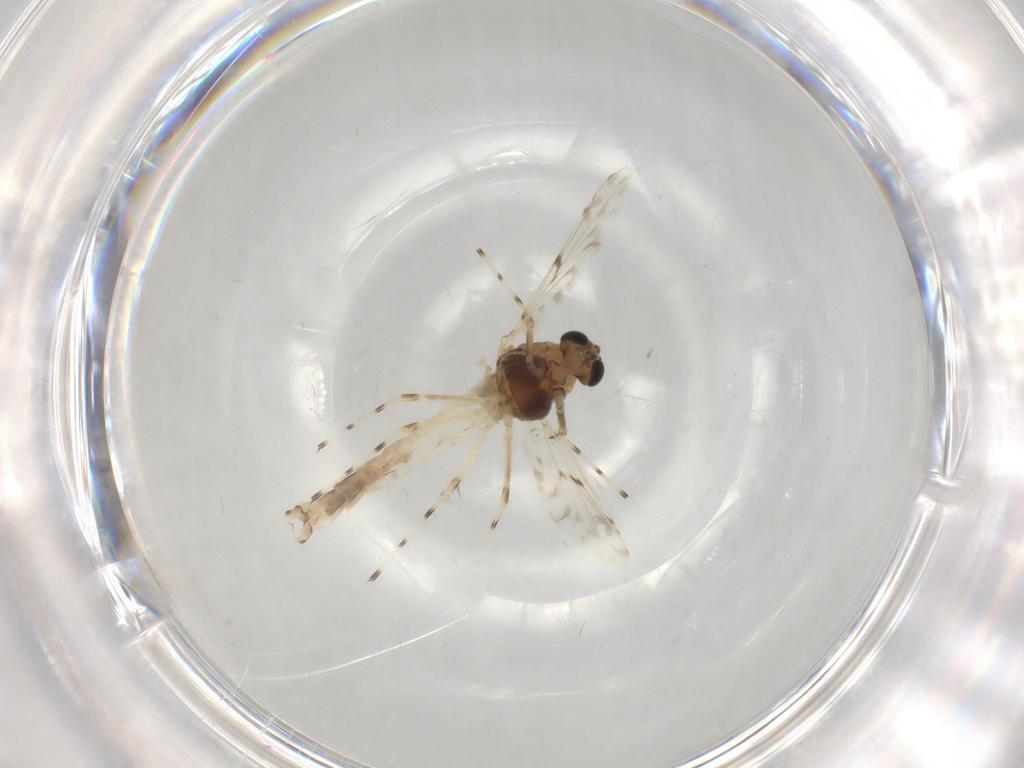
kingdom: Animalia
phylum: Arthropoda
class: Insecta
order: Diptera
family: Chironomidae
